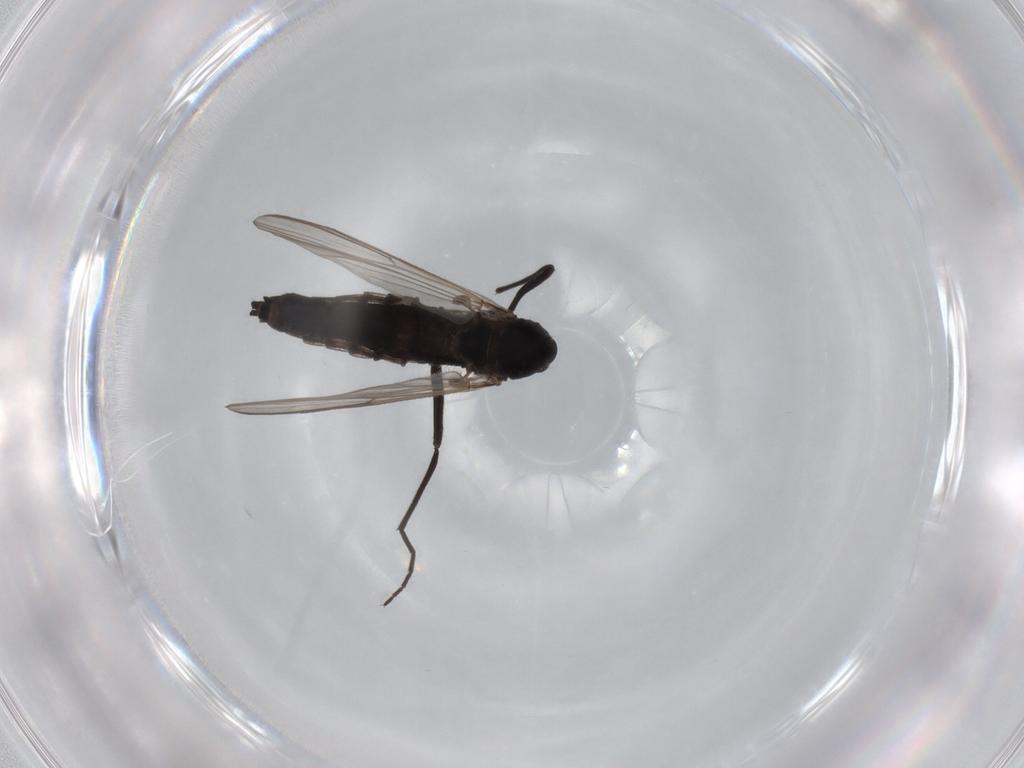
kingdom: Animalia
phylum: Arthropoda
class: Insecta
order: Diptera
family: Chironomidae
